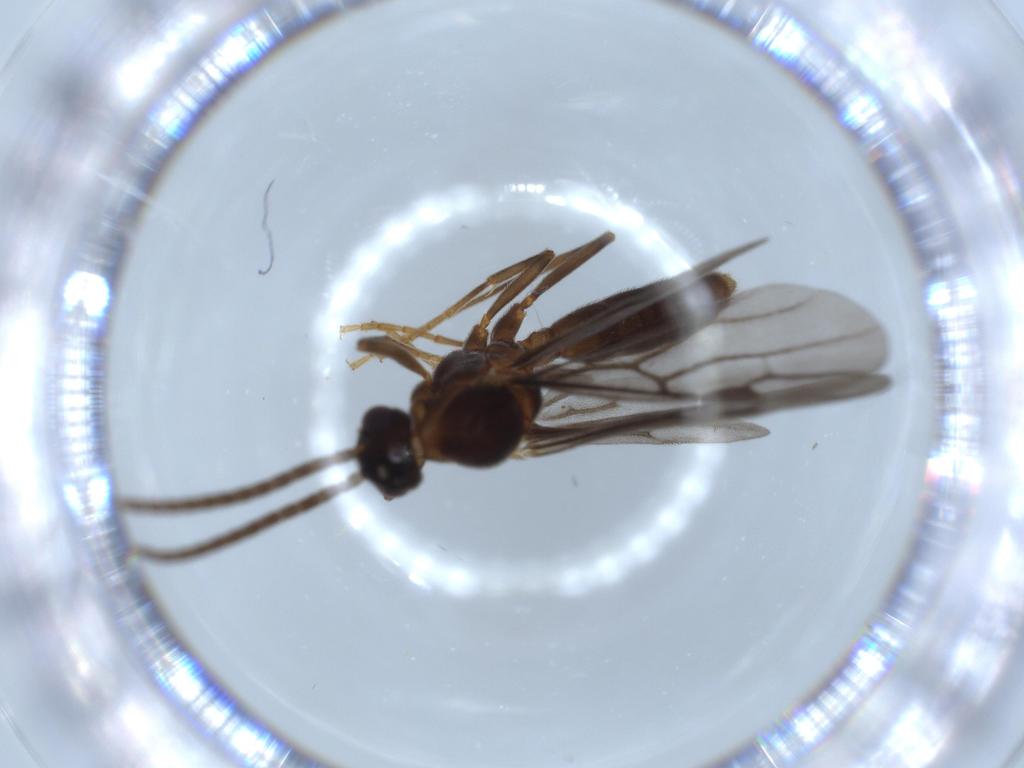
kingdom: Animalia
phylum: Arthropoda
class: Insecta
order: Hymenoptera
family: Formicidae
